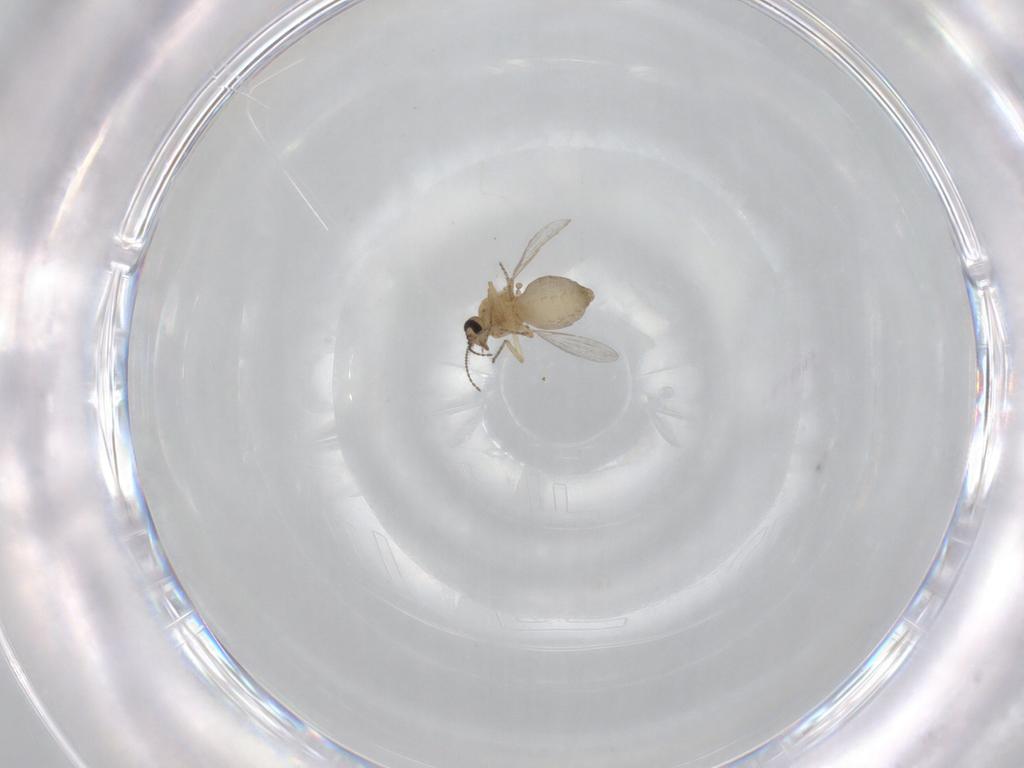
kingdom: Animalia
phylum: Arthropoda
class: Insecta
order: Diptera
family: Ceratopogonidae
